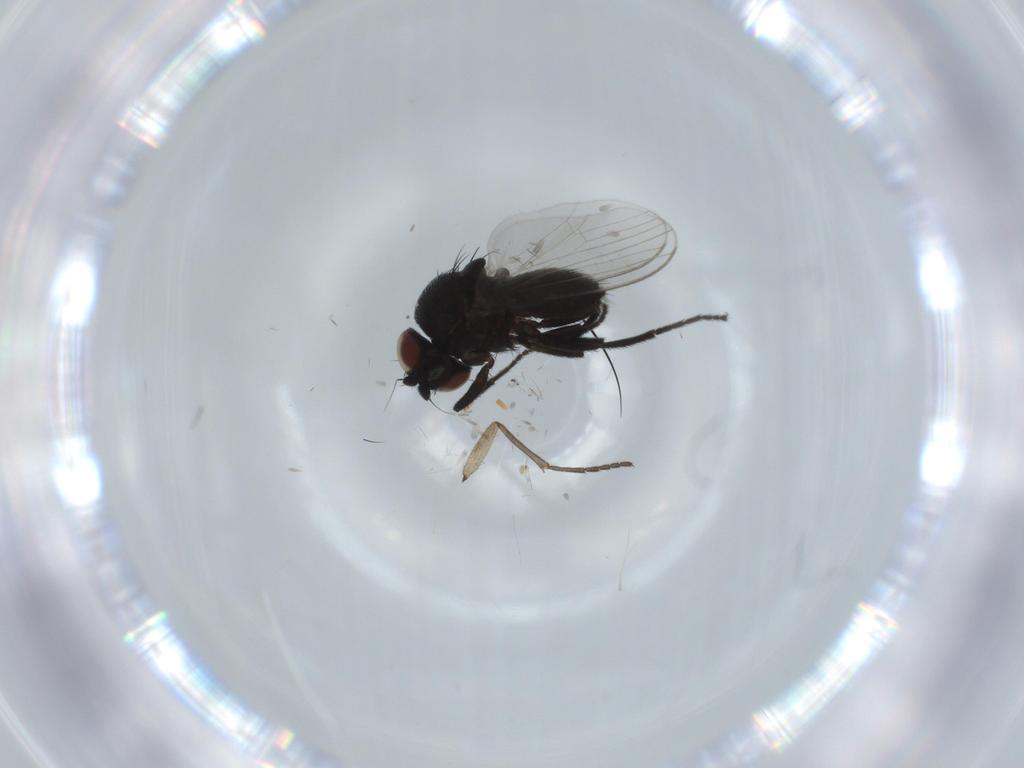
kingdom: Animalia
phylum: Arthropoda
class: Insecta
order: Diptera
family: Milichiidae
